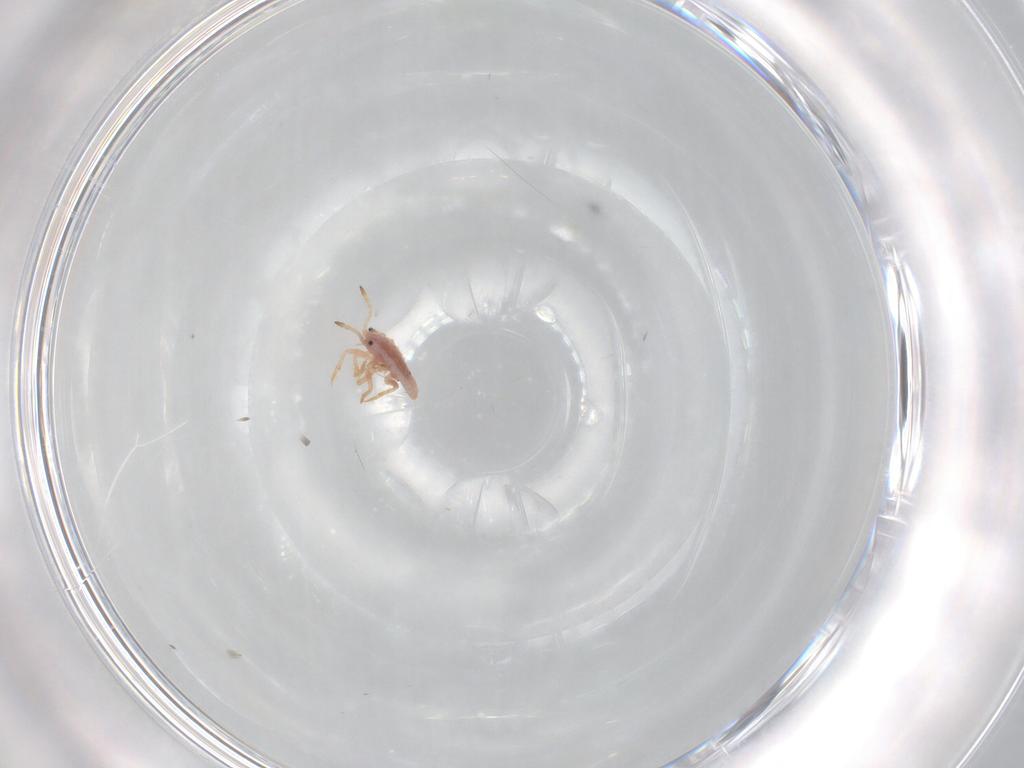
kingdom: Animalia
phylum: Arthropoda
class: Insecta
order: Hemiptera
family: Coccoidea_incertae_sedis
